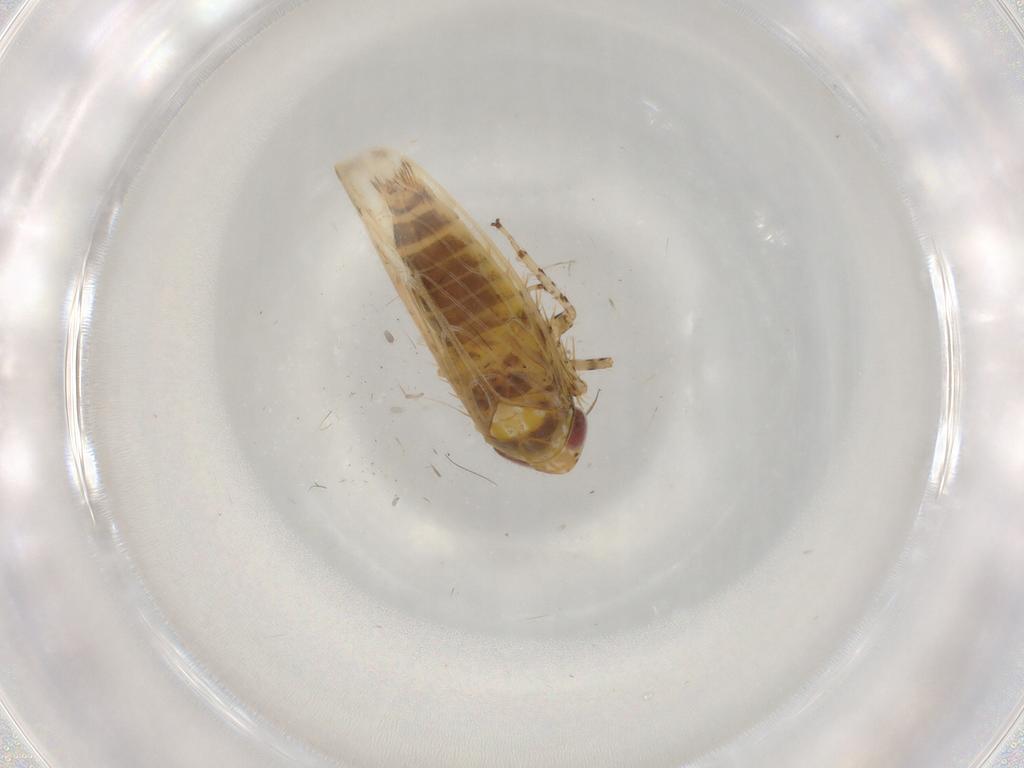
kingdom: Animalia
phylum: Arthropoda
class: Insecta
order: Hemiptera
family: Cicadellidae
